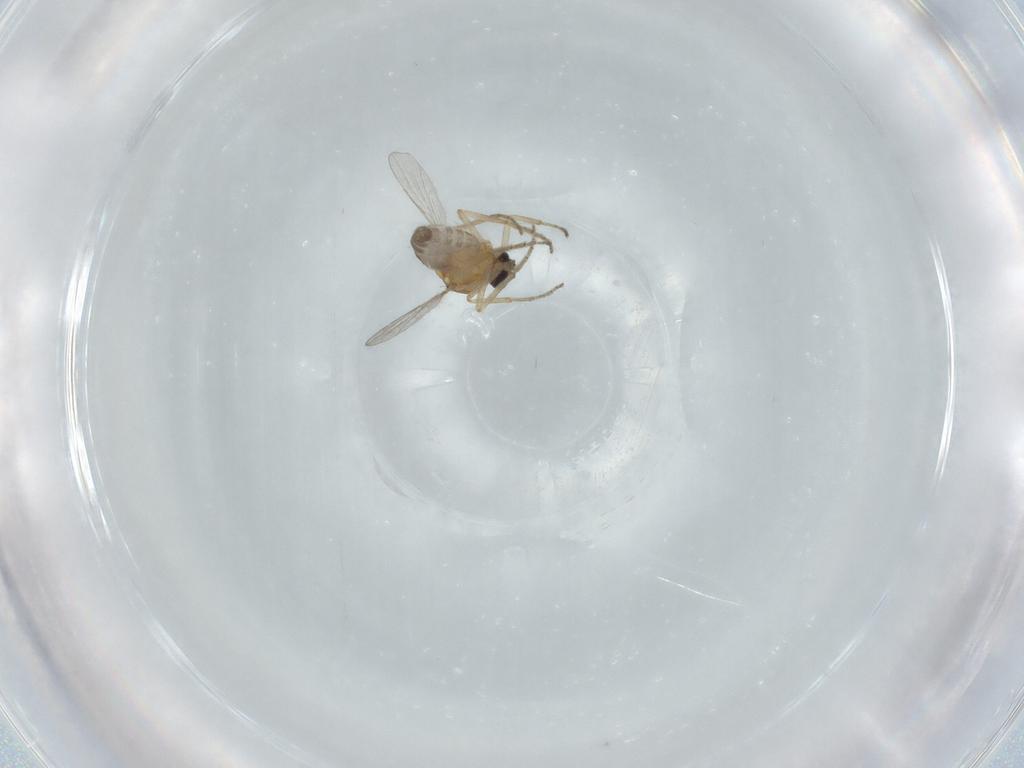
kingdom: Animalia
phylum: Arthropoda
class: Insecta
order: Diptera
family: Ceratopogonidae
